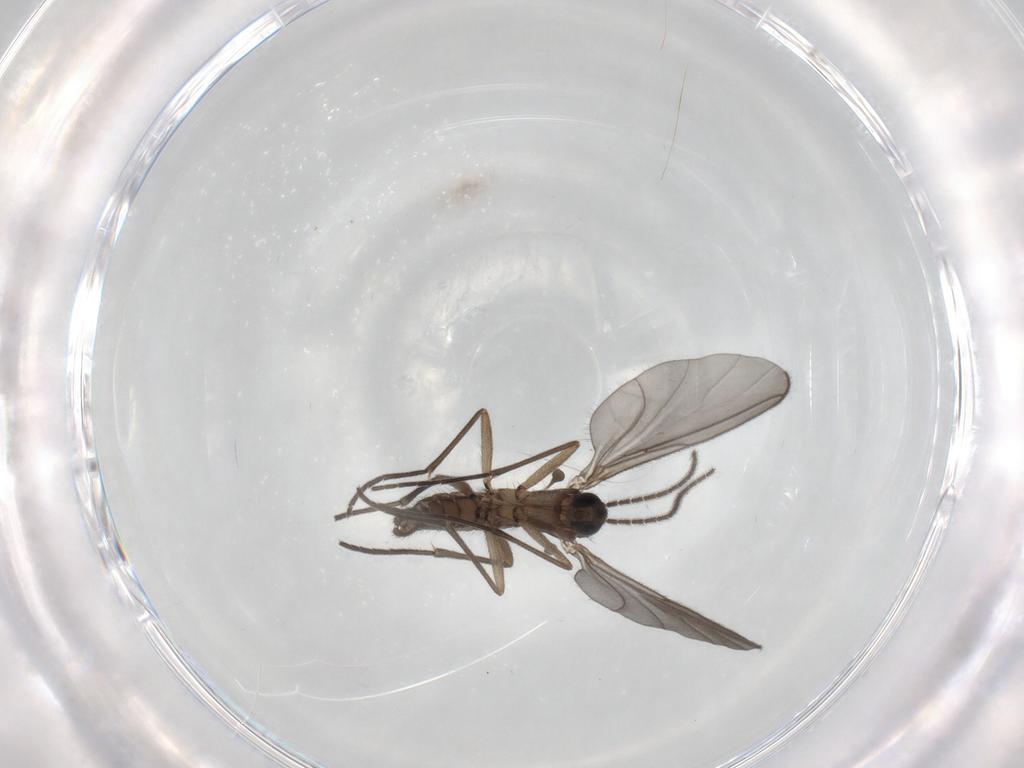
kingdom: Animalia
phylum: Arthropoda
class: Insecta
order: Diptera
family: Sciaridae
